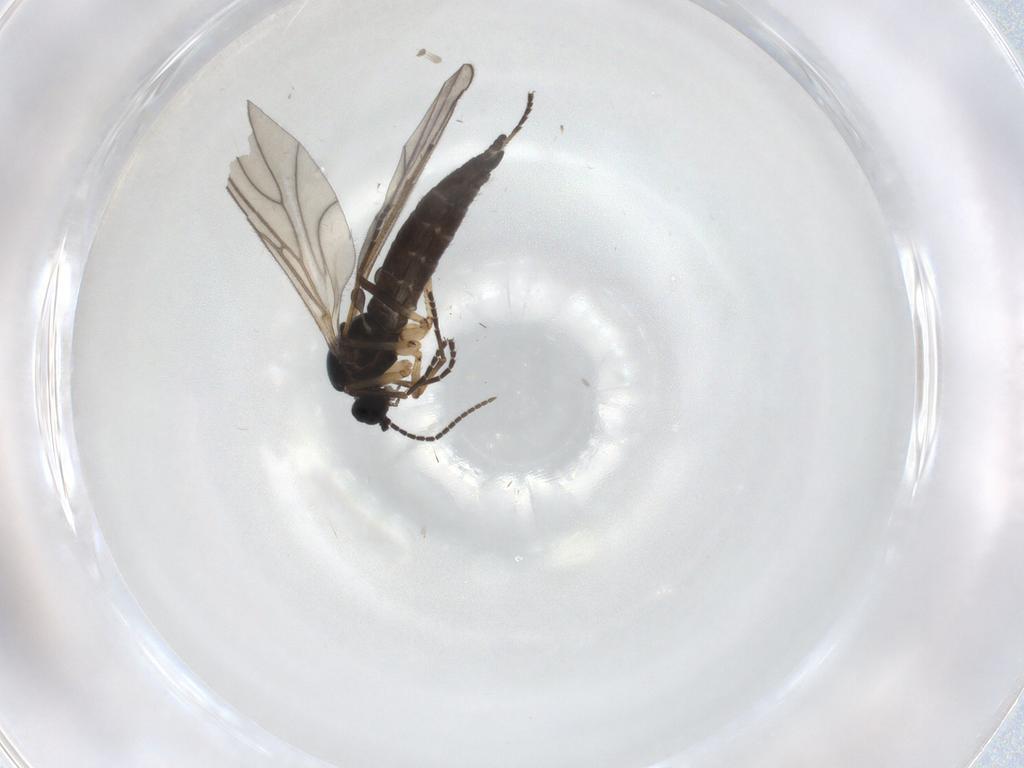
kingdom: Animalia
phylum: Arthropoda
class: Insecta
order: Diptera
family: Sciaridae
